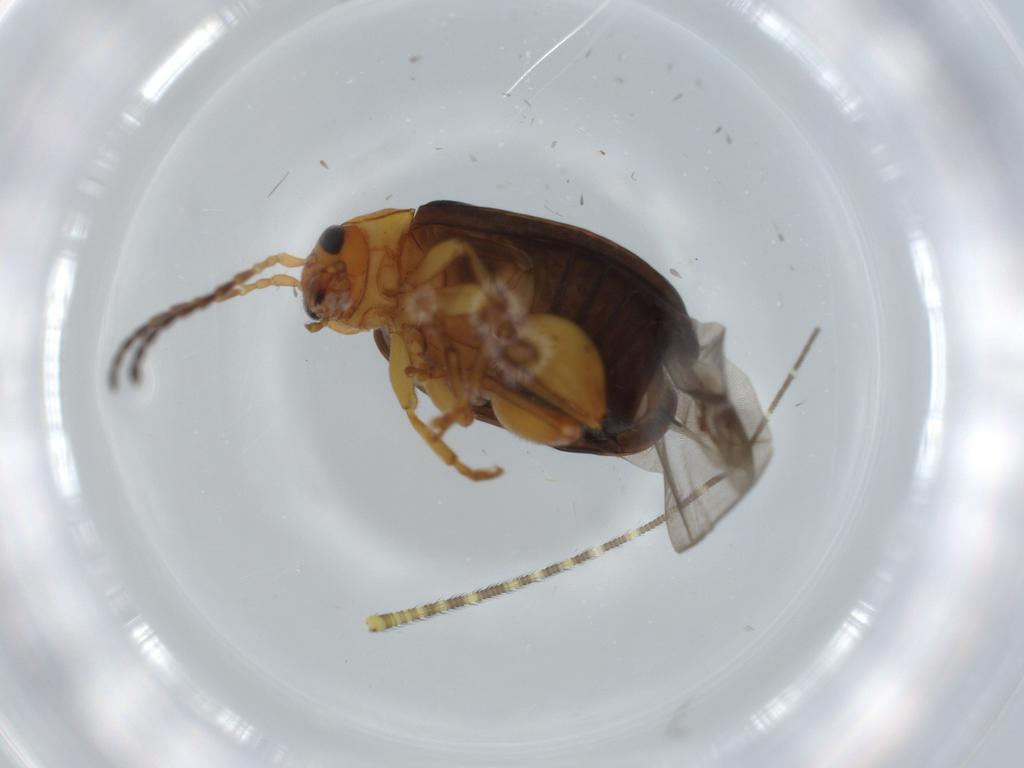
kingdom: Animalia
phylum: Arthropoda
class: Insecta
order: Coleoptera
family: Chrysomelidae
